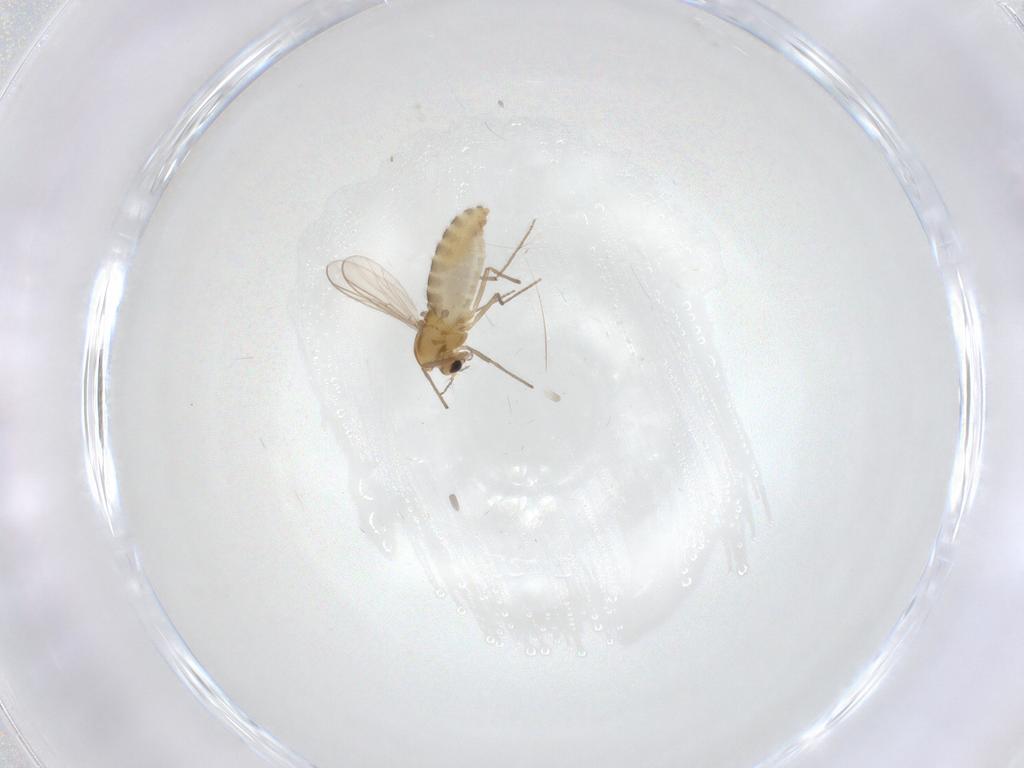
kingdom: Animalia
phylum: Arthropoda
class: Insecta
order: Diptera
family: Chironomidae
